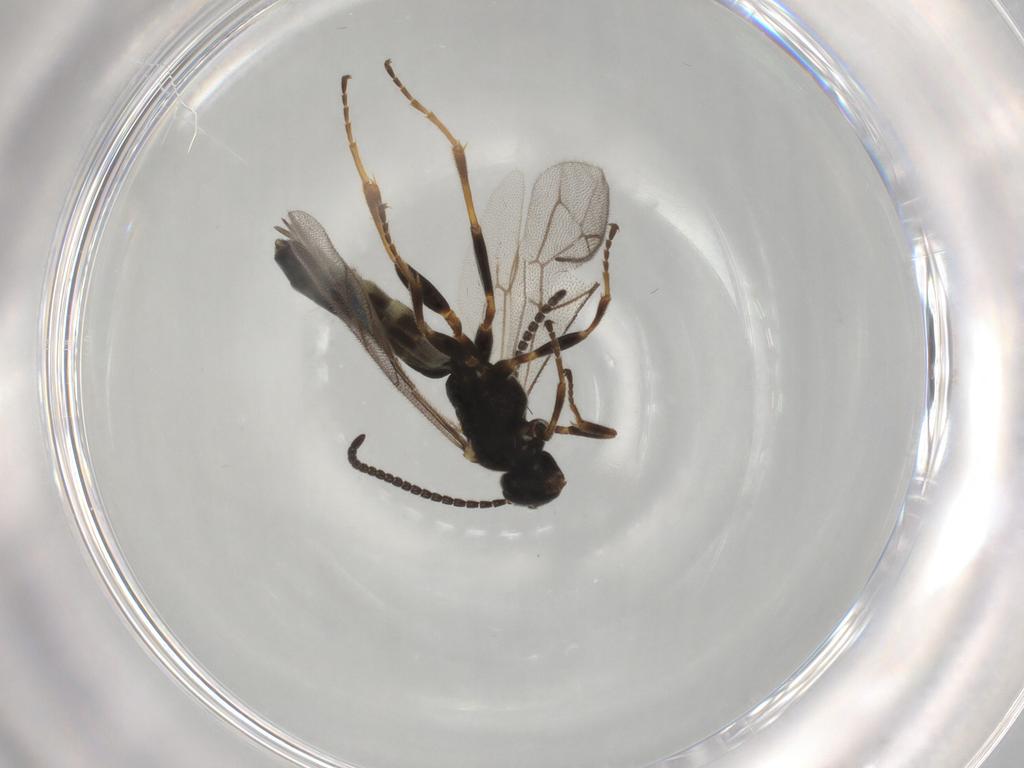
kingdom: Animalia
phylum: Arthropoda
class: Insecta
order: Hymenoptera
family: Ichneumonidae
